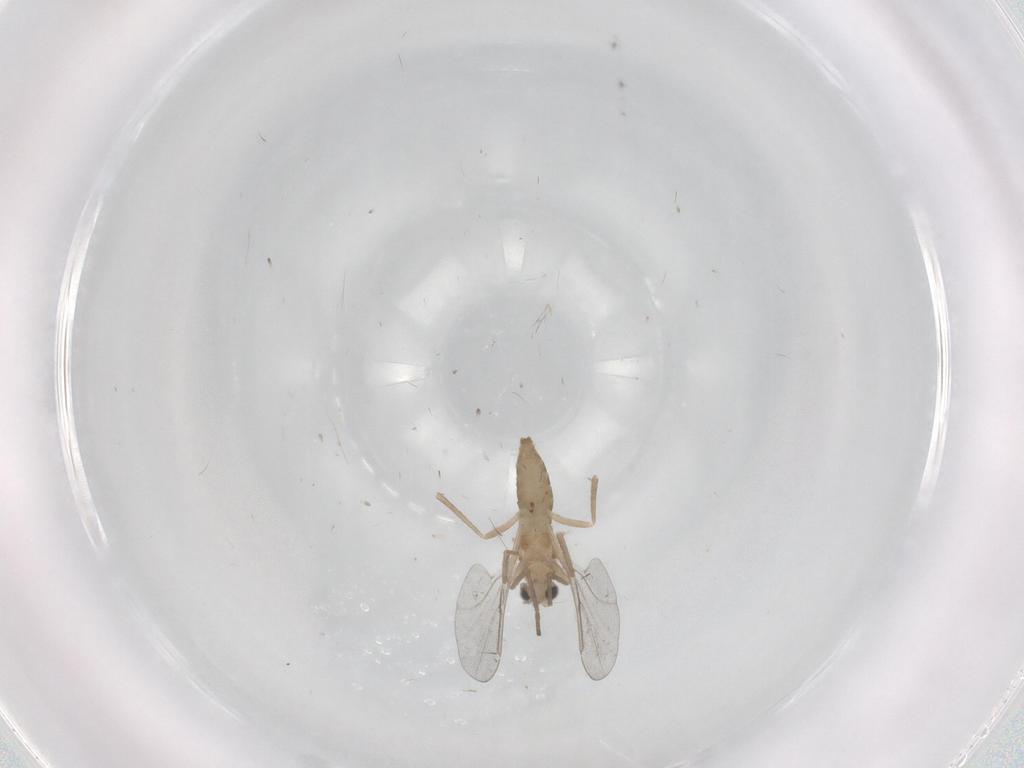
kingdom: Animalia
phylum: Arthropoda
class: Insecta
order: Diptera
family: Cecidomyiidae
